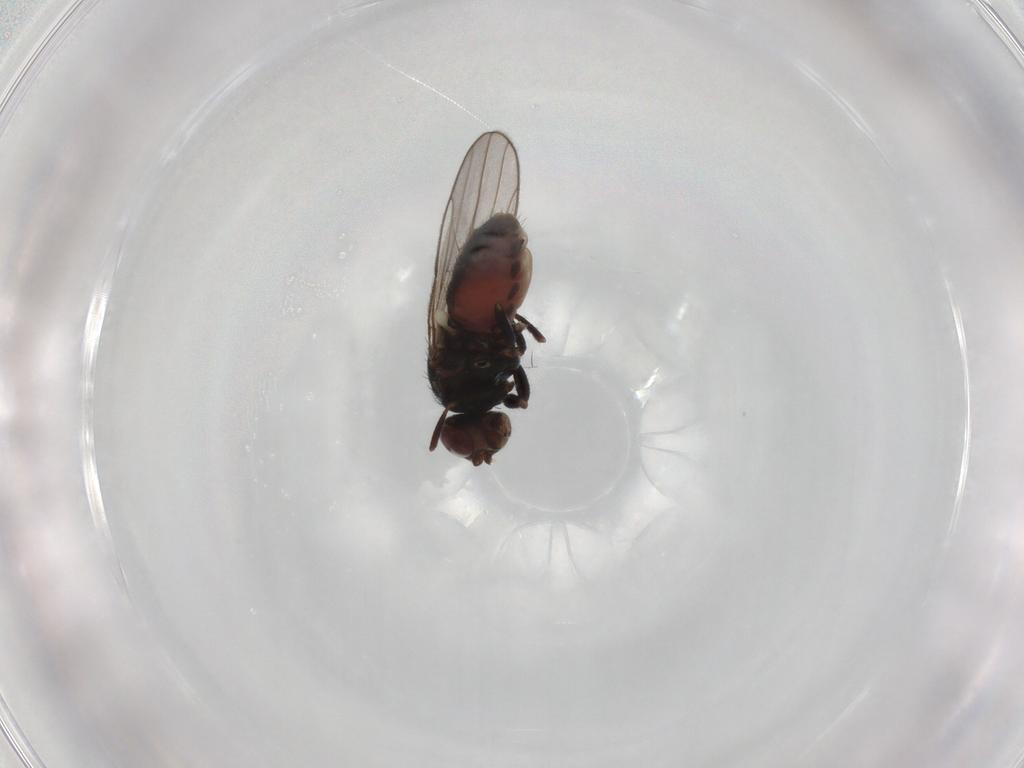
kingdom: Animalia
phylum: Arthropoda
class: Insecta
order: Diptera
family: Chloropidae
